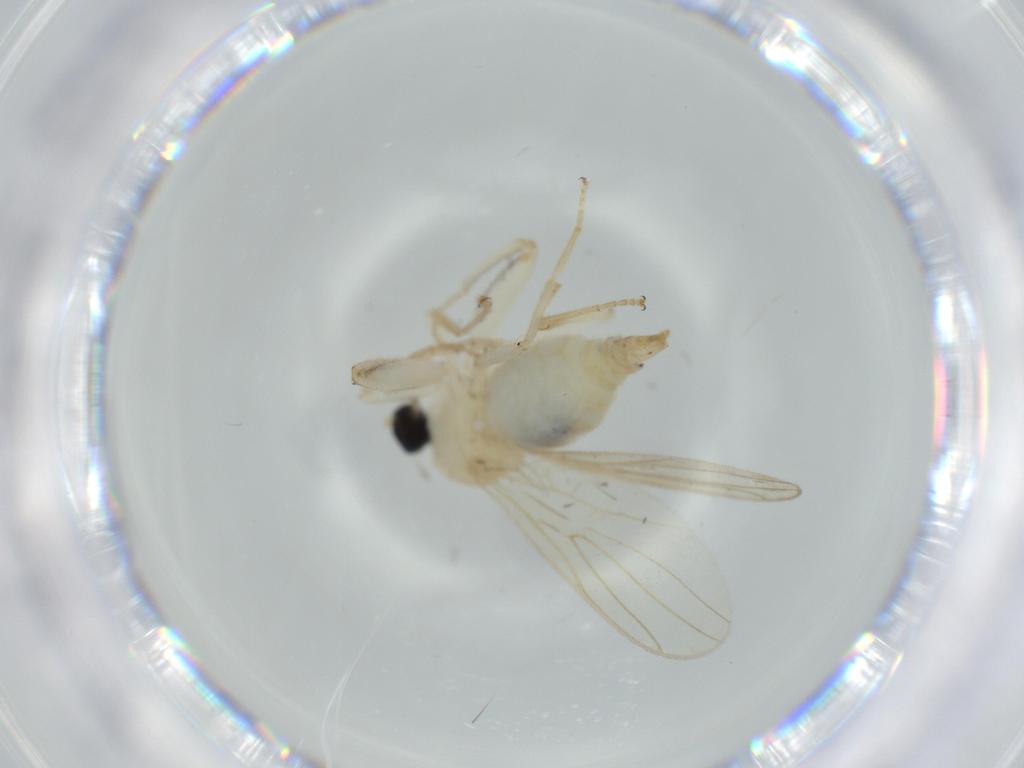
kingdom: Animalia
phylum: Arthropoda
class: Insecta
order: Diptera
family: Hybotidae
